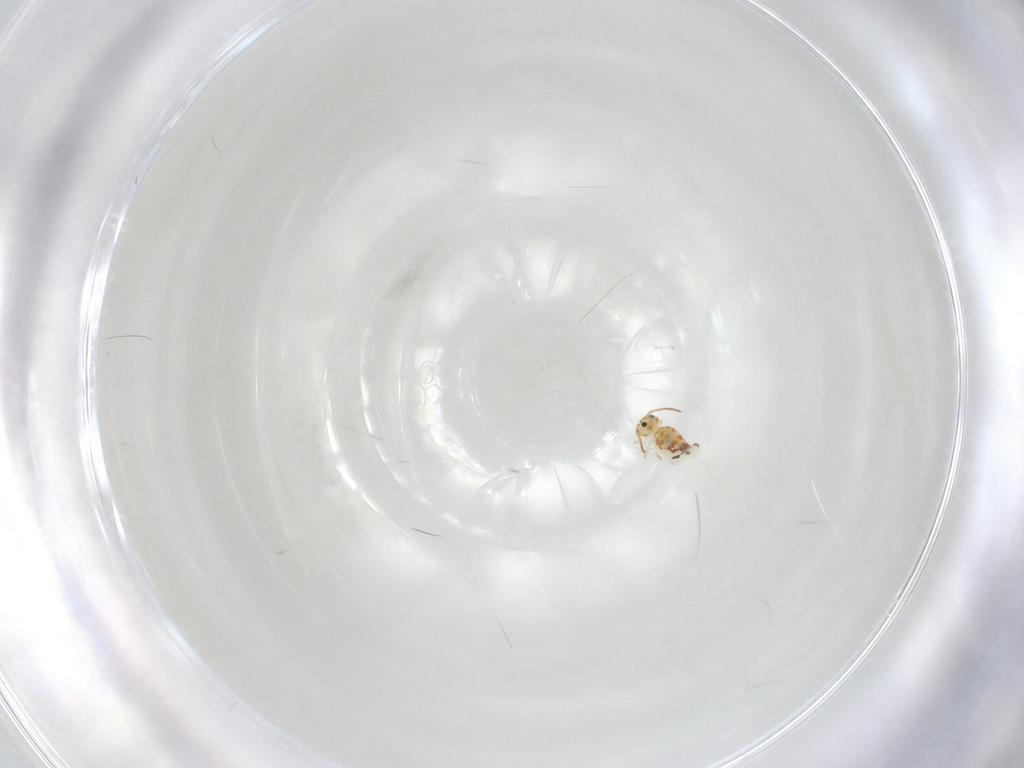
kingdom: Animalia
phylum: Arthropoda
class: Collembola
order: Symphypleona
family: Bourletiellidae
